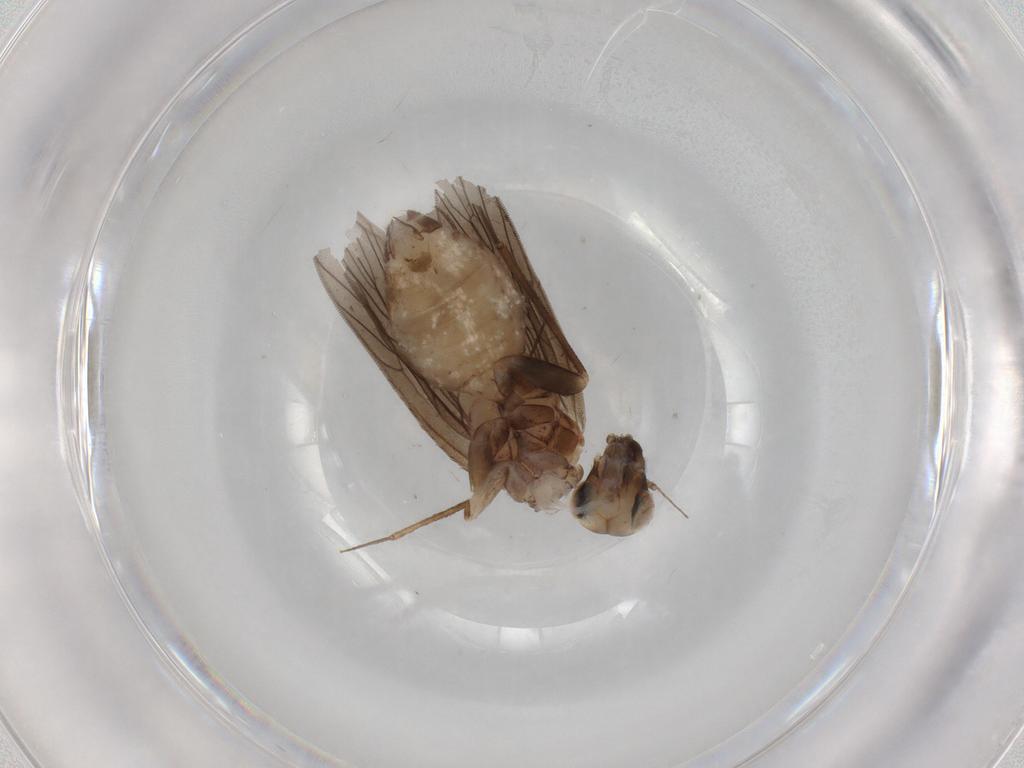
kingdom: Animalia
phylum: Arthropoda
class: Insecta
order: Psocodea
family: Lepidopsocidae
